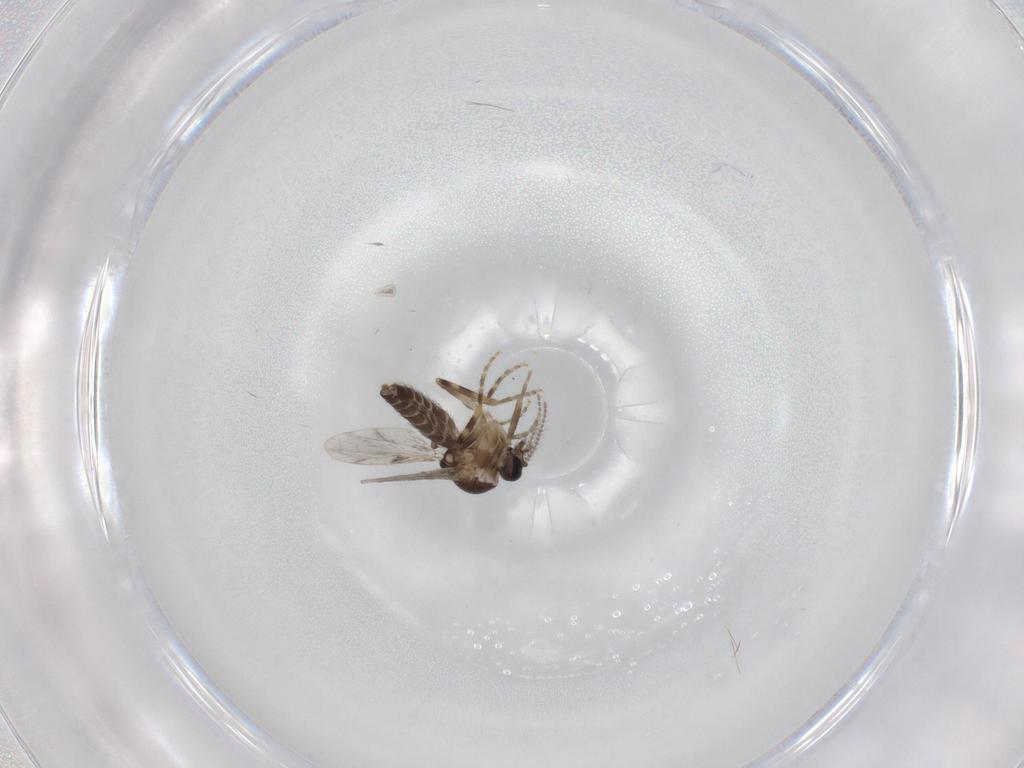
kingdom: Animalia
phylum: Arthropoda
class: Insecta
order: Diptera
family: Ceratopogonidae
